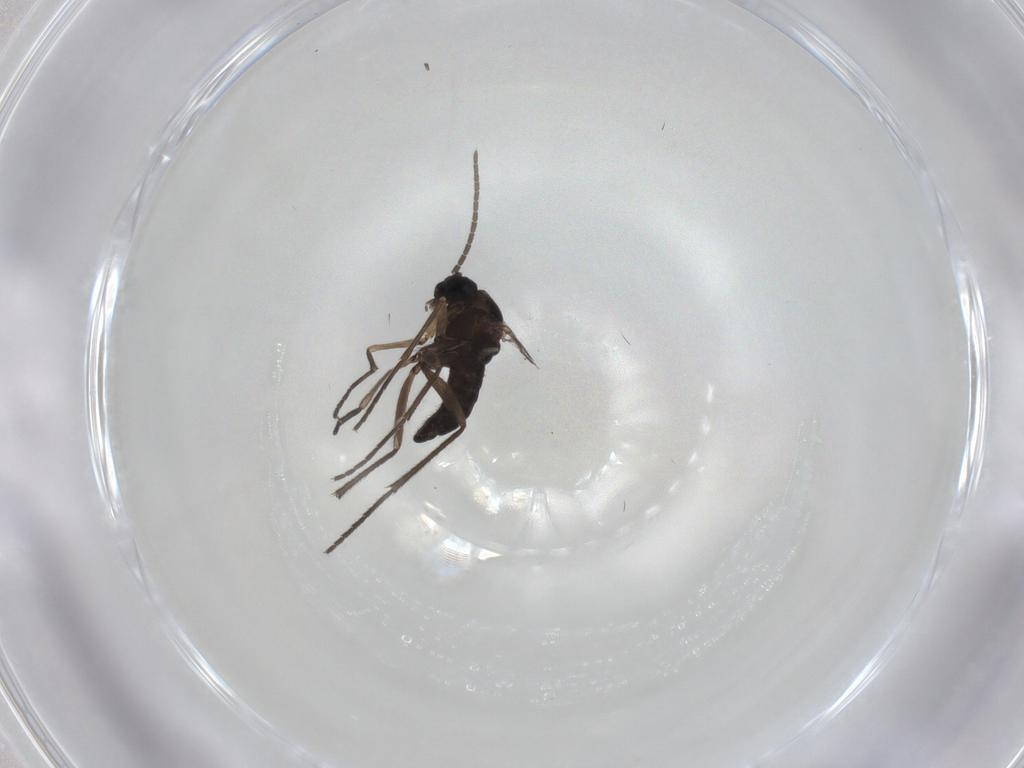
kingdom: Animalia
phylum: Arthropoda
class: Insecta
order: Diptera
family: Sciaridae
